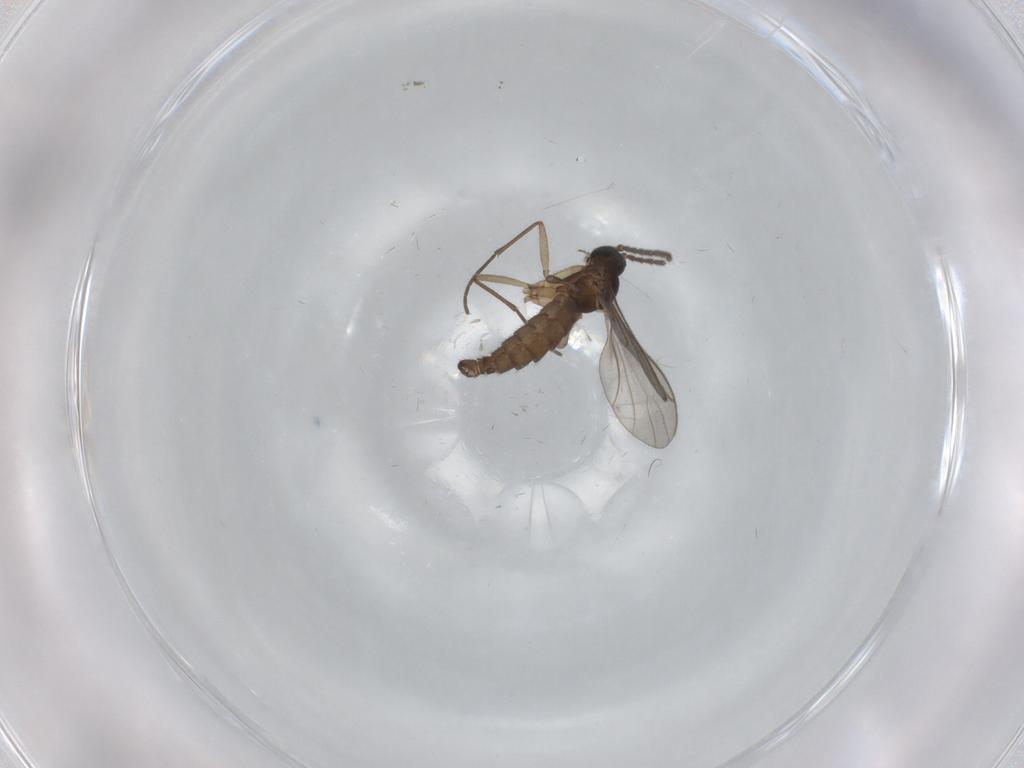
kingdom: Animalia
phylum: Arthropoda
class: Insecta
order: Diptera
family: Sciaridae
